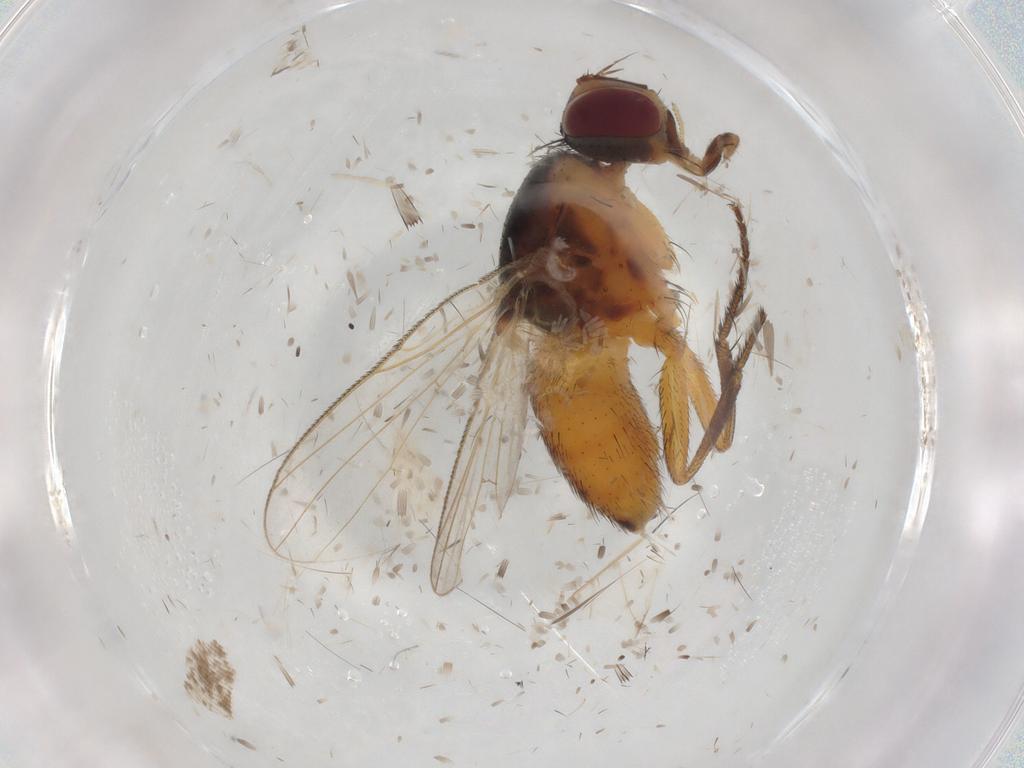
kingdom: Animalia
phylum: Arthropoda
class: Insecta
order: Diptera
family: Muscidae
